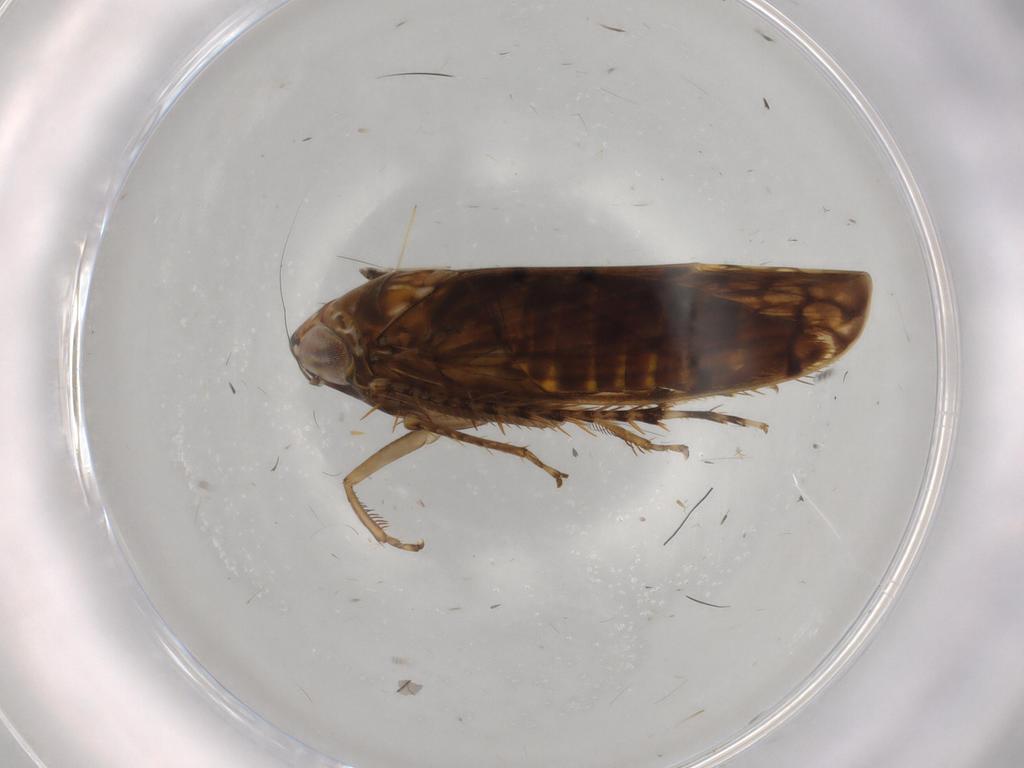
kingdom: Animalia
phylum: Arthropoda
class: Insecta
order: Hemiptera
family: Cicadellidae
